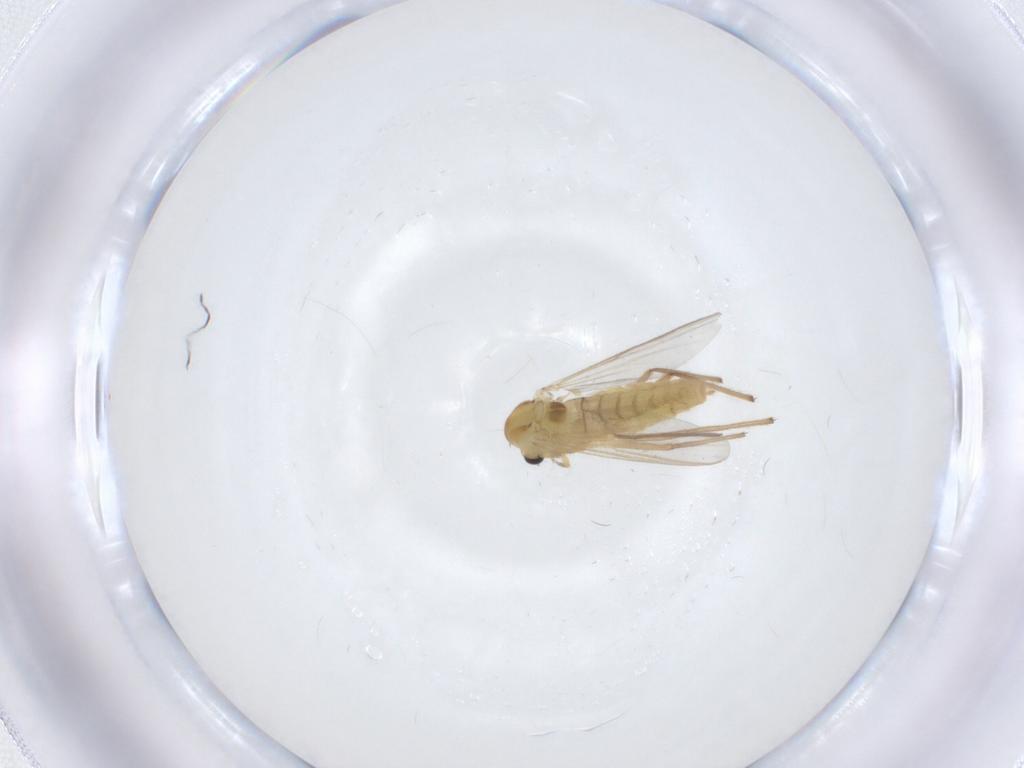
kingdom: Animalia
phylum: Arthropoda
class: Insecta
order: Diptera
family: Chironomidae
